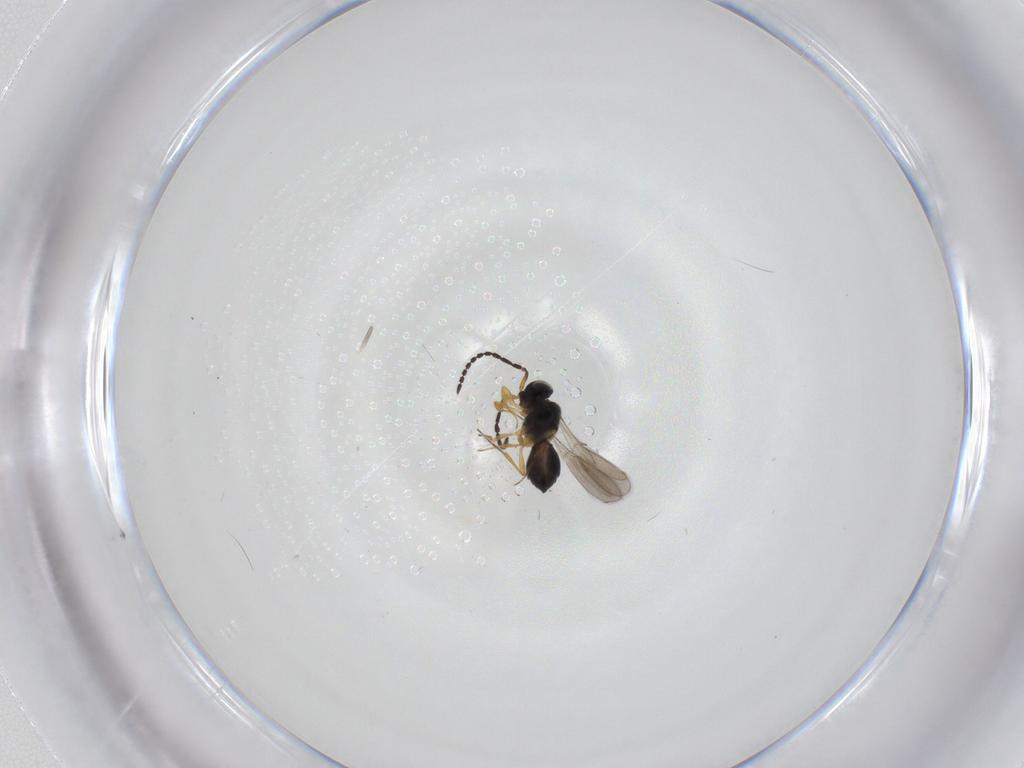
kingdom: Animalia
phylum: Arthropoda
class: Insecta
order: Hymenoptera
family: Scelionidae
